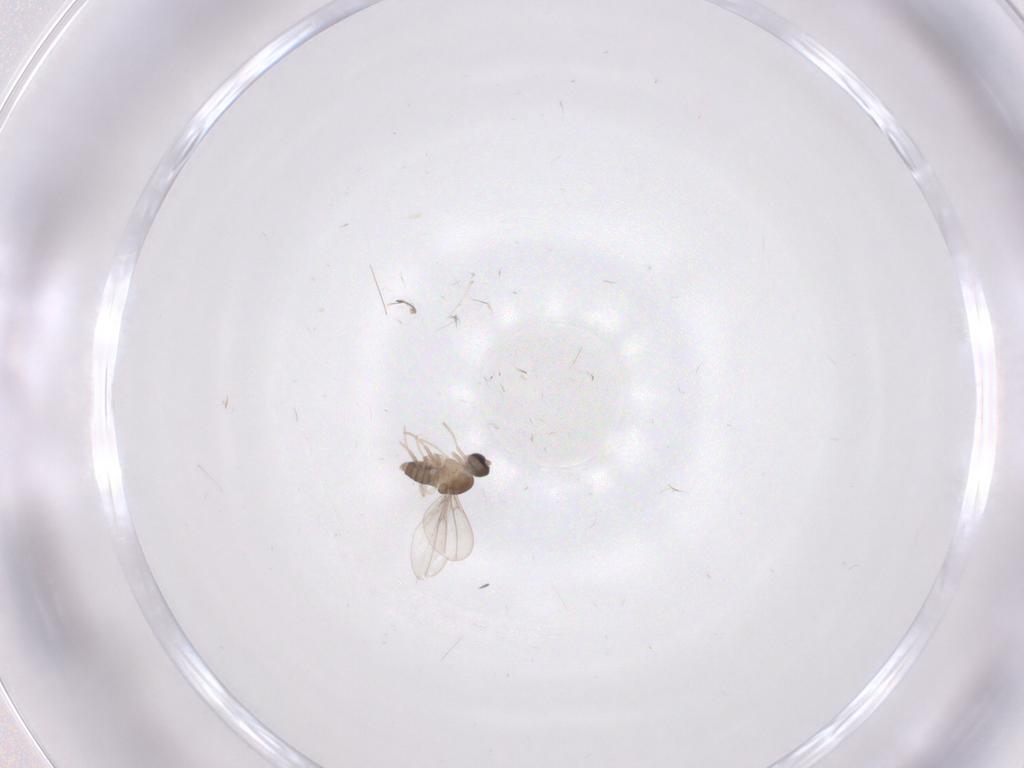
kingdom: Animalia
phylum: Arthropoda
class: Insecta
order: Diptera
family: Cecidomyiidae
